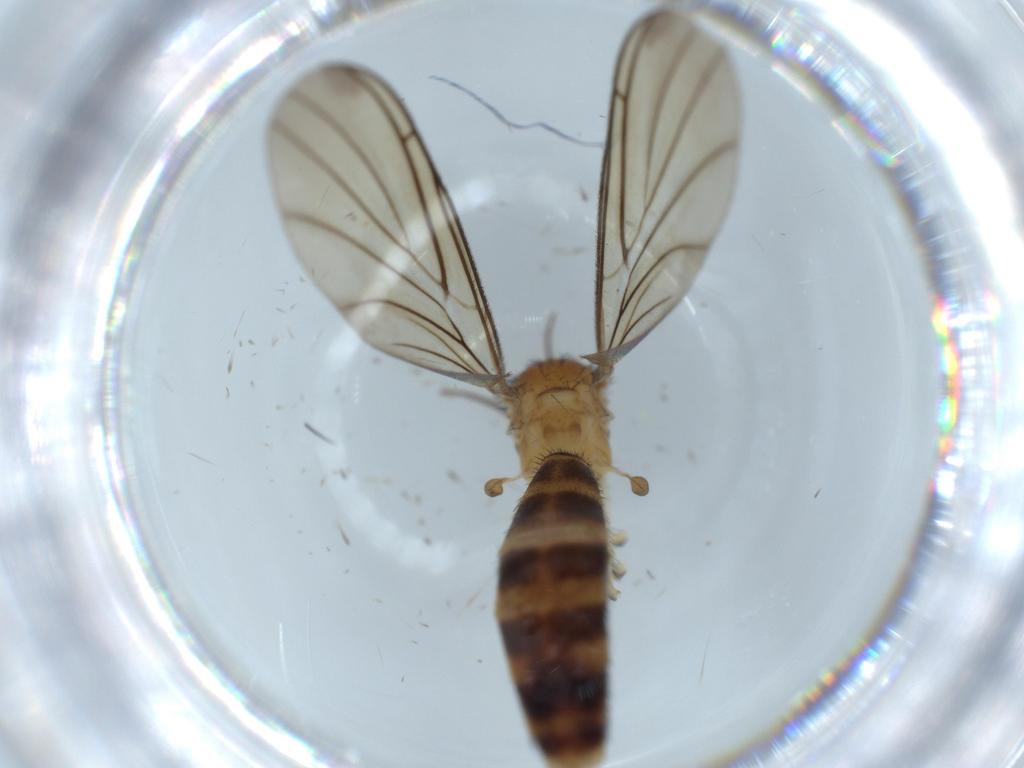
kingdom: Animalia
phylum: Arthropoda
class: Insecta
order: Diptera
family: Keroplatidae
